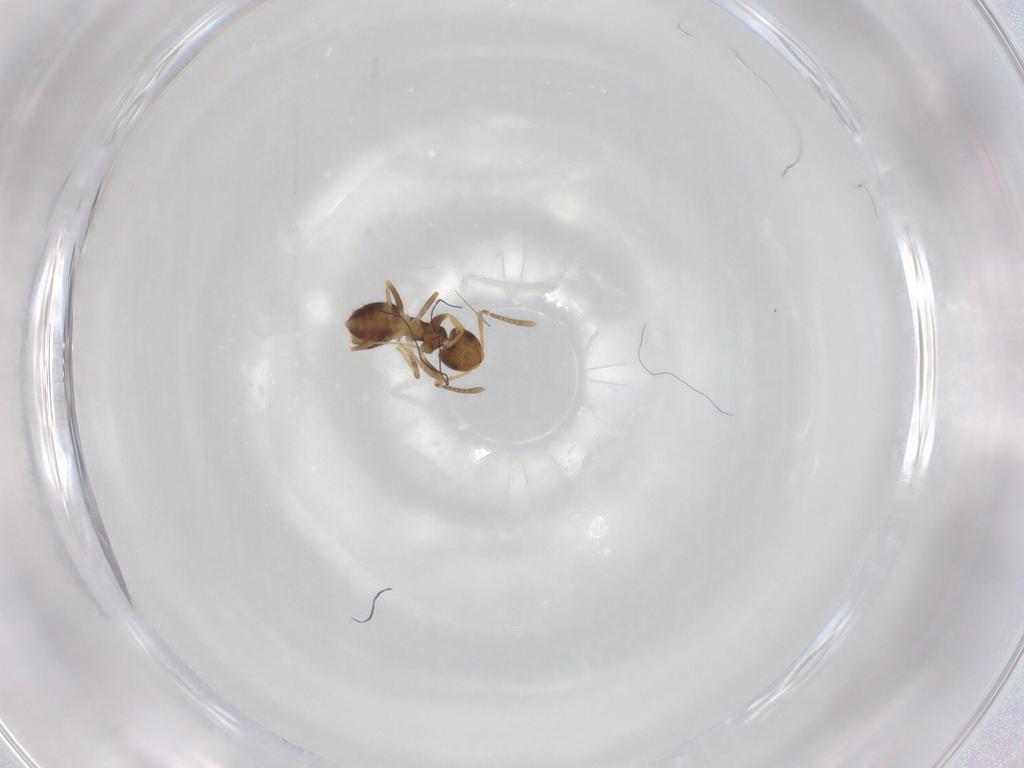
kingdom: Animalia
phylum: Arthropoda
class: Insecta
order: Hymenoptera
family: Formicidae
